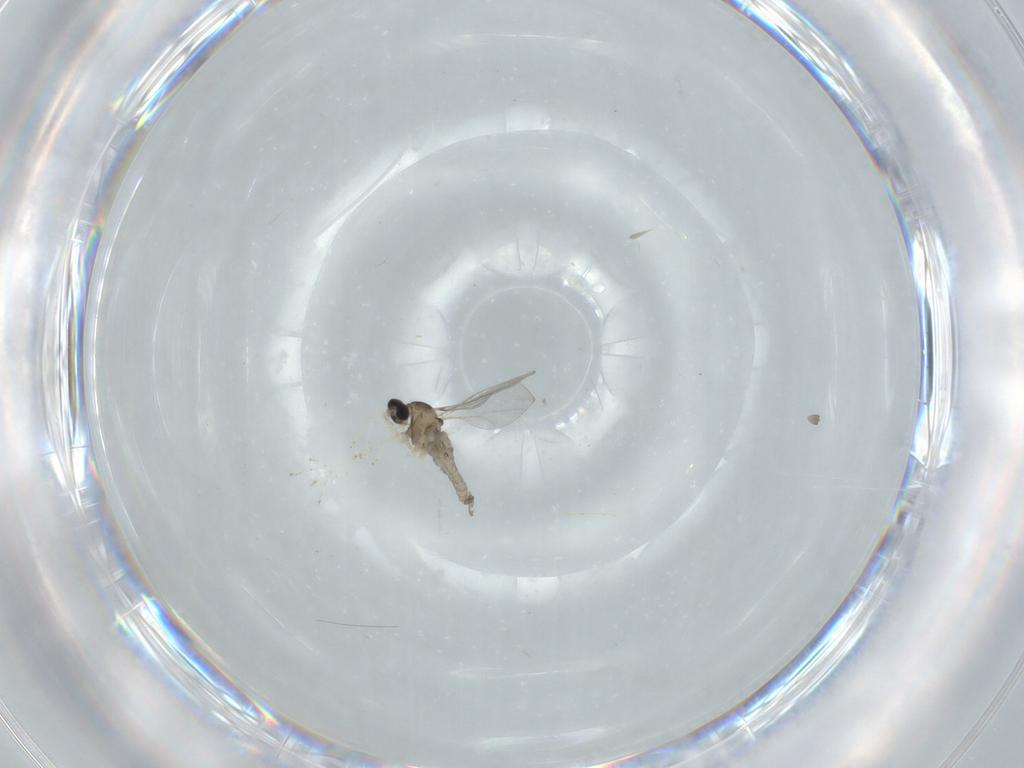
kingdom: Animalia
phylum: Arthropoda
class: Insecta
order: Diptera
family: Cecidomyiidae
